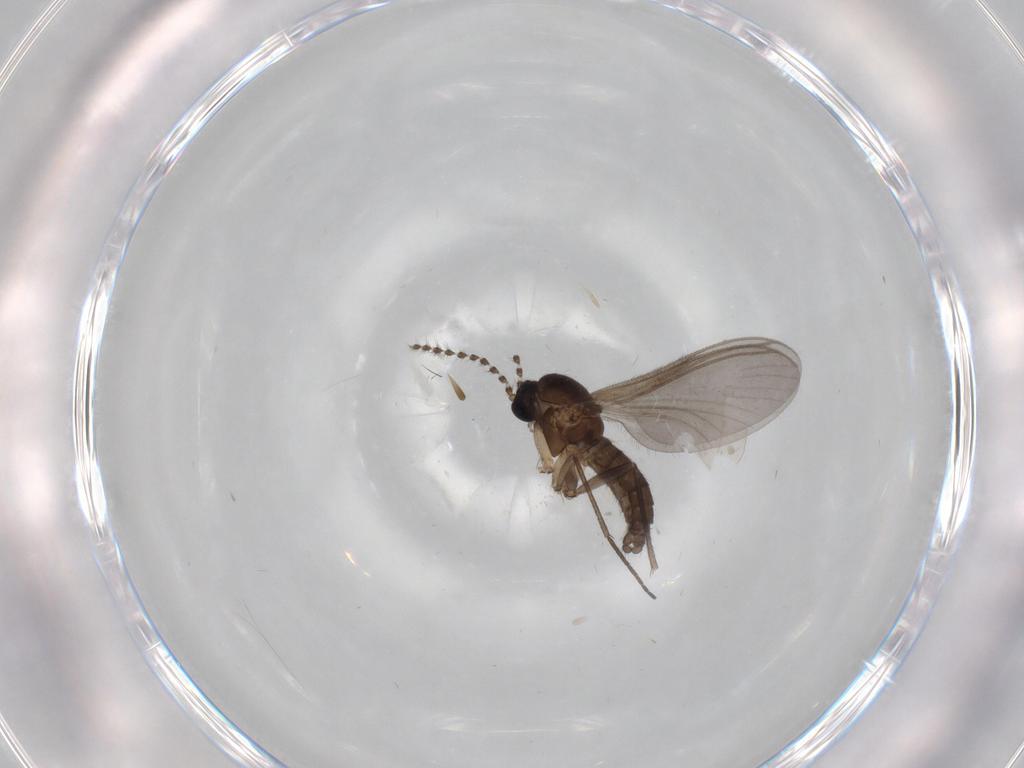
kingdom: Animalia
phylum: Arthropoda
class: Insecta
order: Diptera
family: Sciaridae
